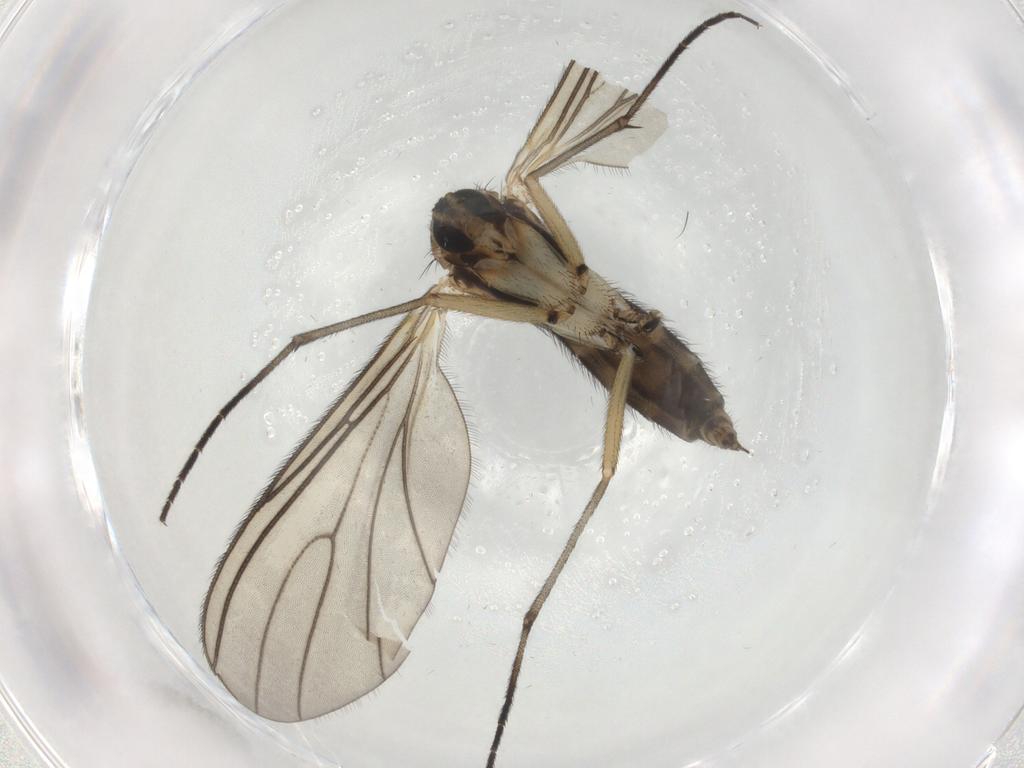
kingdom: Animalia
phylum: Arthropoda
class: Insecta
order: Diptera
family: Sciaridae
